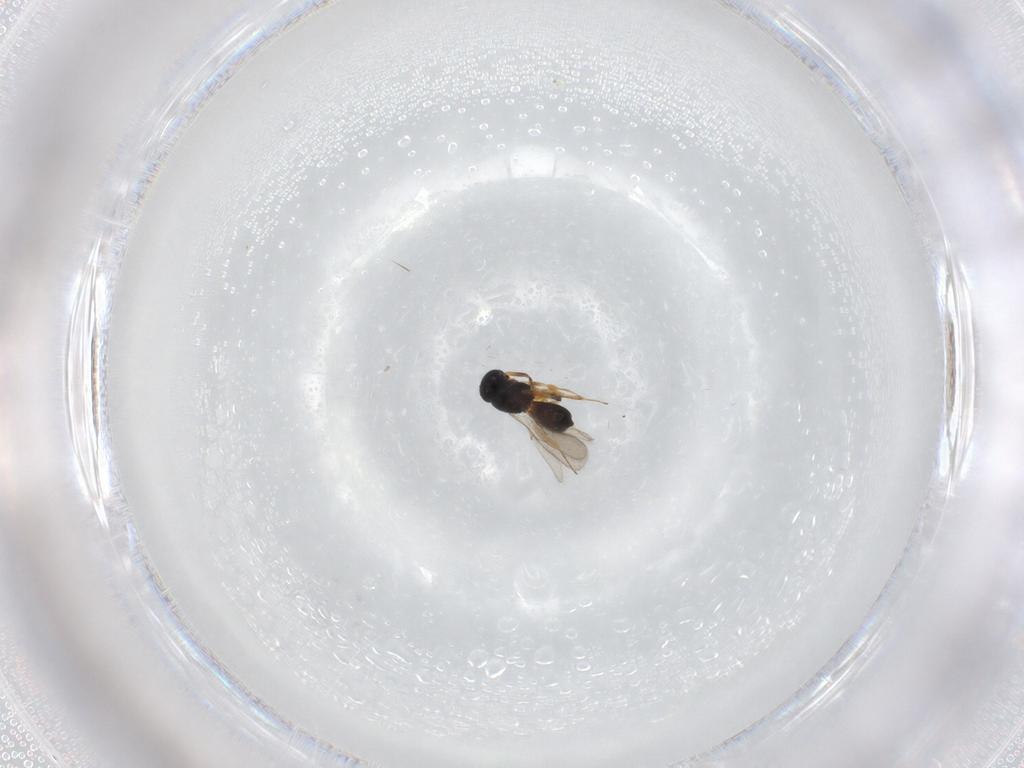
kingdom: Animalia
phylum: Arthropoda
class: Insecta
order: Hymenoptera
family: Scelionidae
